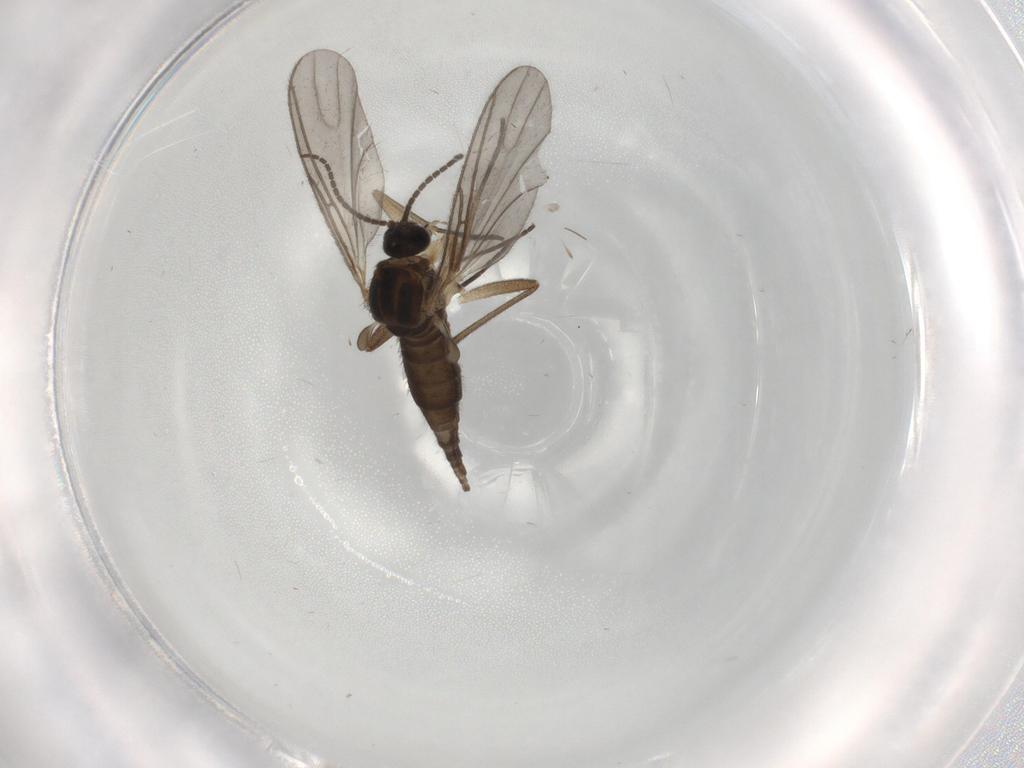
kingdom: Animalia
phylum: Arthropoda
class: Insecta
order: Diptera
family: Sciaridae
